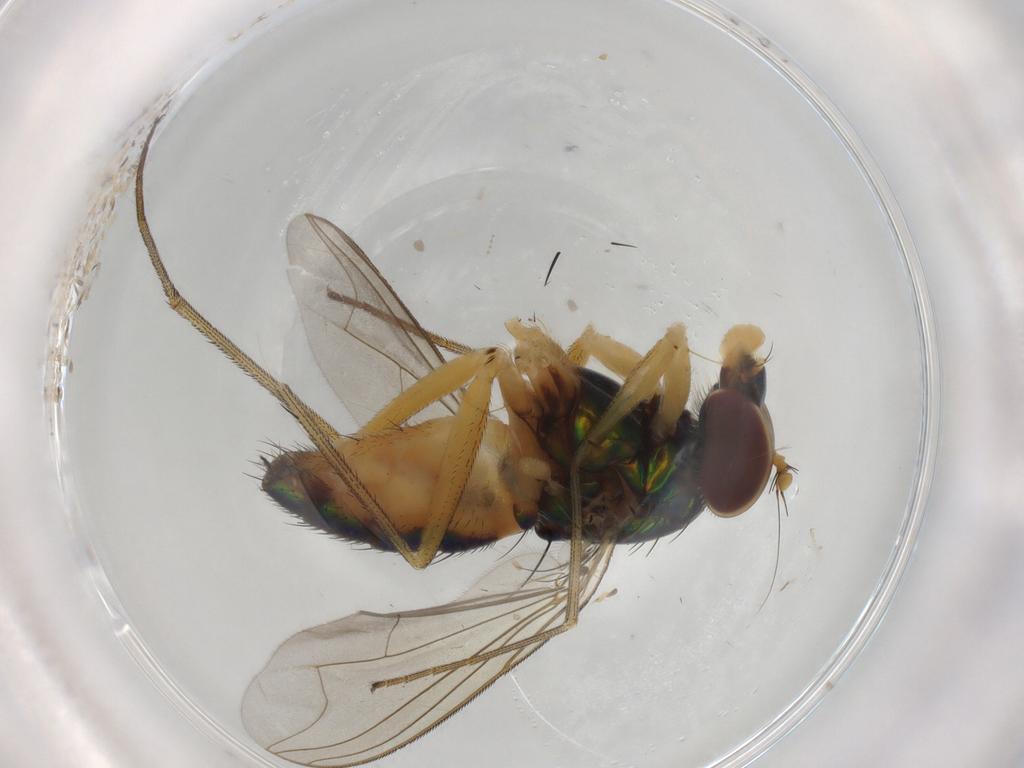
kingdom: Animalia
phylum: Arthropoda
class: Insecta
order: Diptera
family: Dolichopodidae
